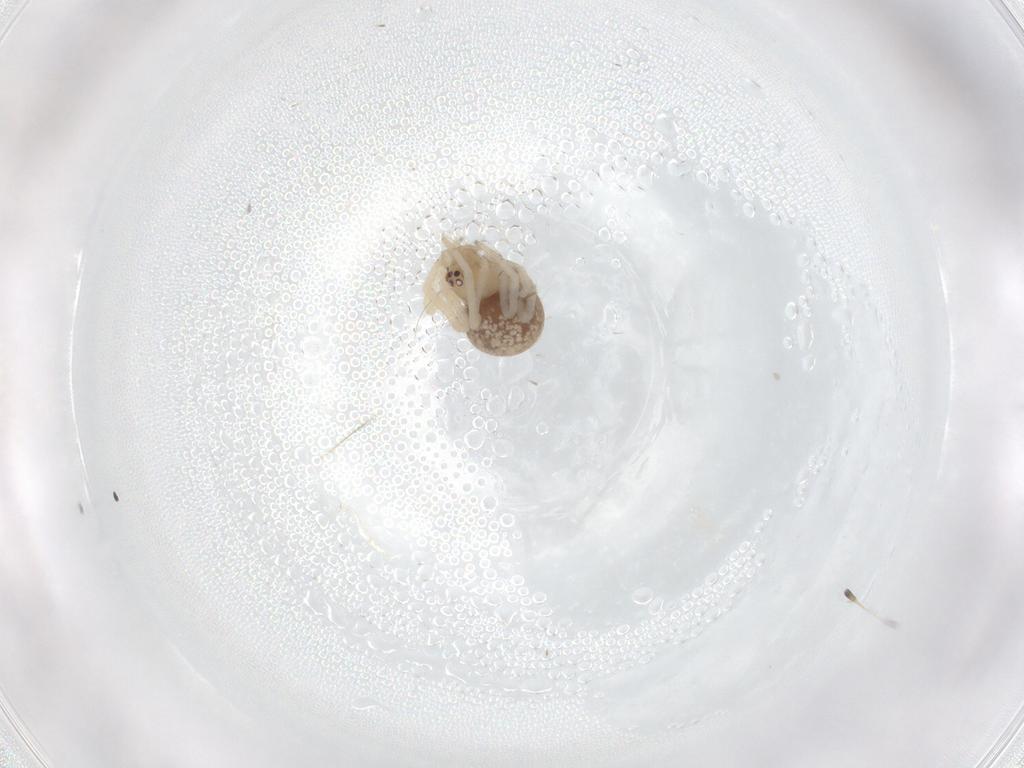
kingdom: Animalia
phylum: Arthropoda
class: Arachnida
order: Araneae
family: Theridiidae
